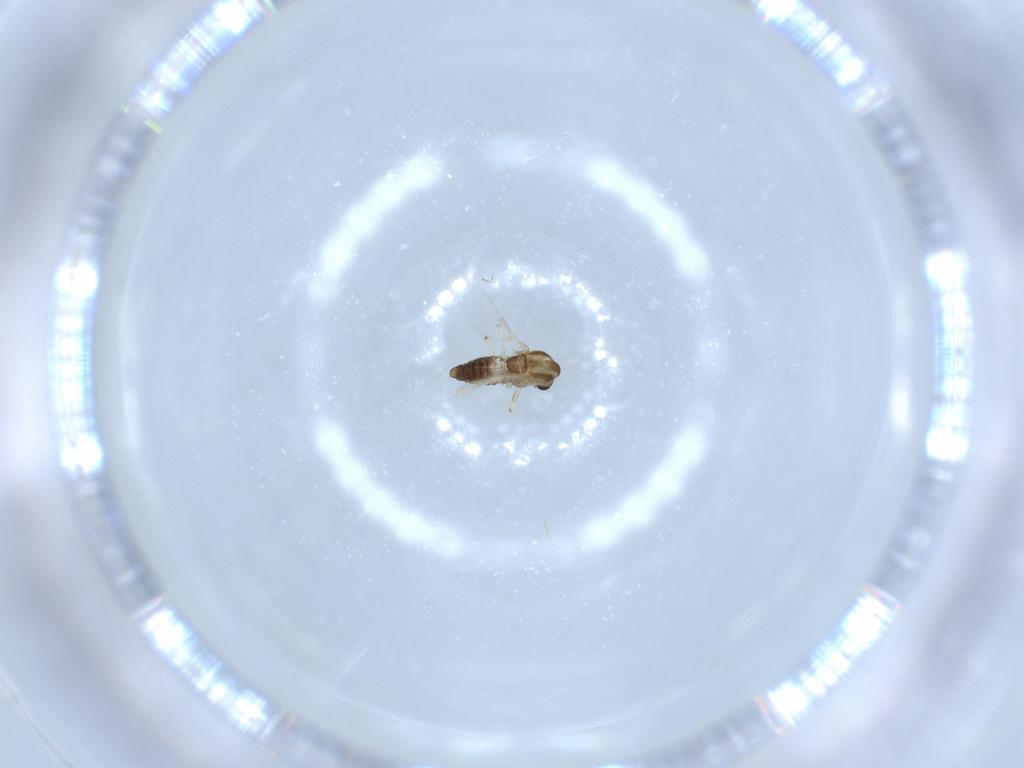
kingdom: Animalia
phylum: Arthropoda
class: Insecta
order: Diptera
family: Chironomidae
